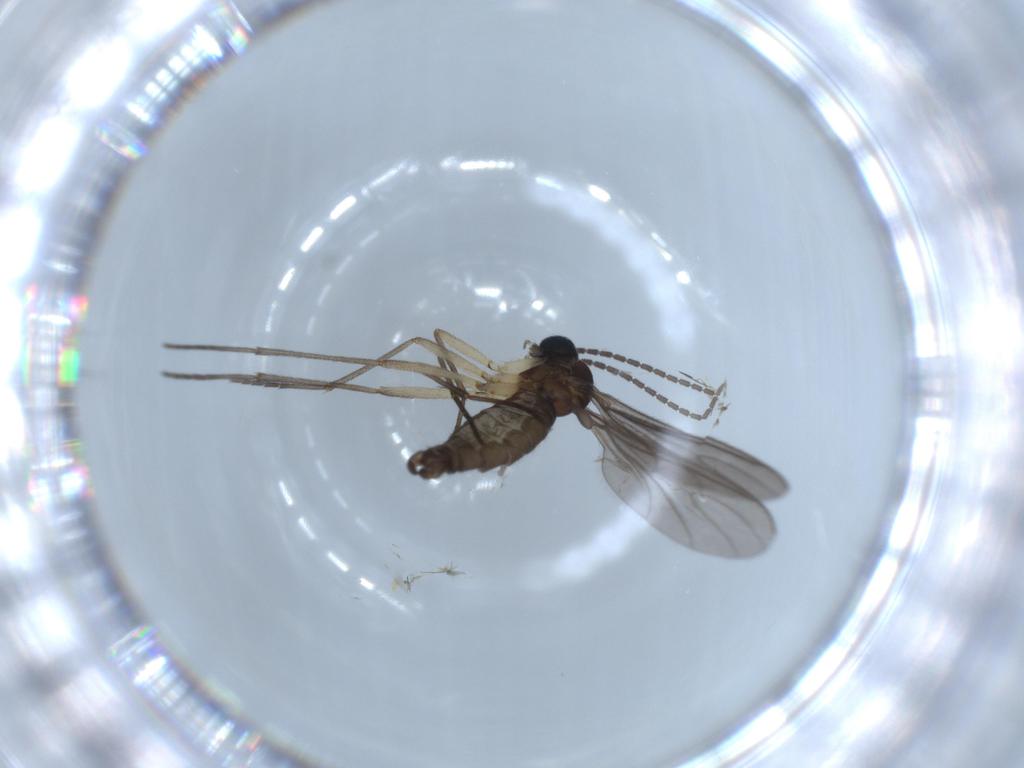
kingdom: Animalia
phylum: Arthropoda
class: Insecta
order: Diptera
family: Sciaridae
